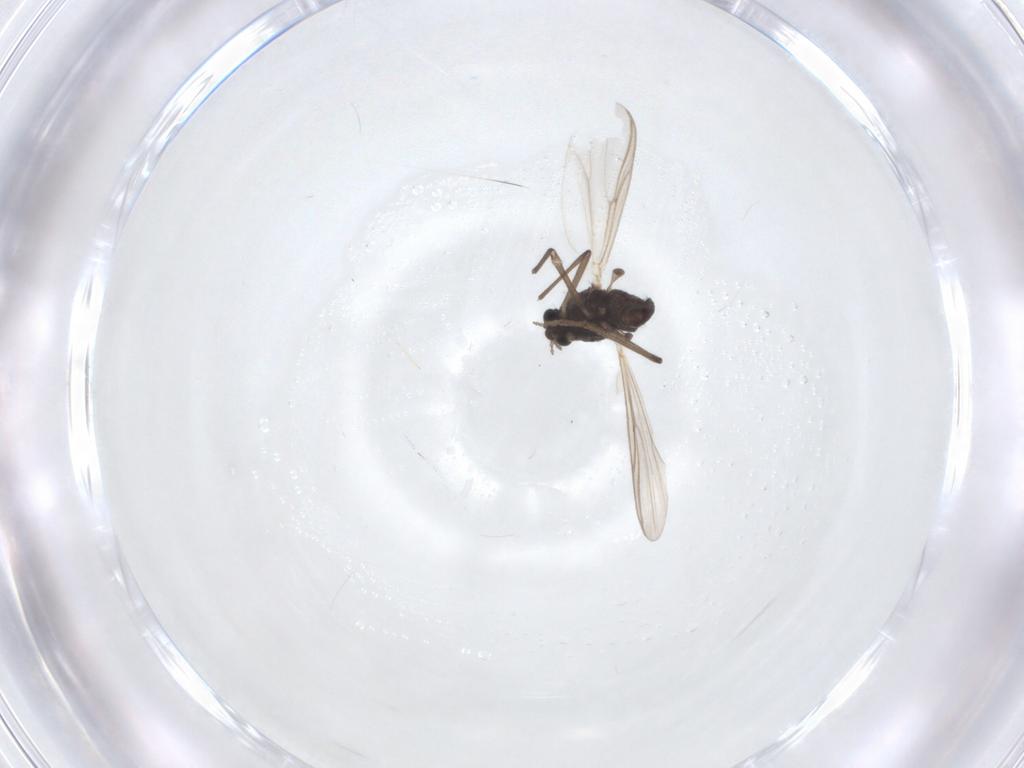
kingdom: Animalia
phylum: Arthropoda
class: Insecta
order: Diptera
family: Chironomidae
